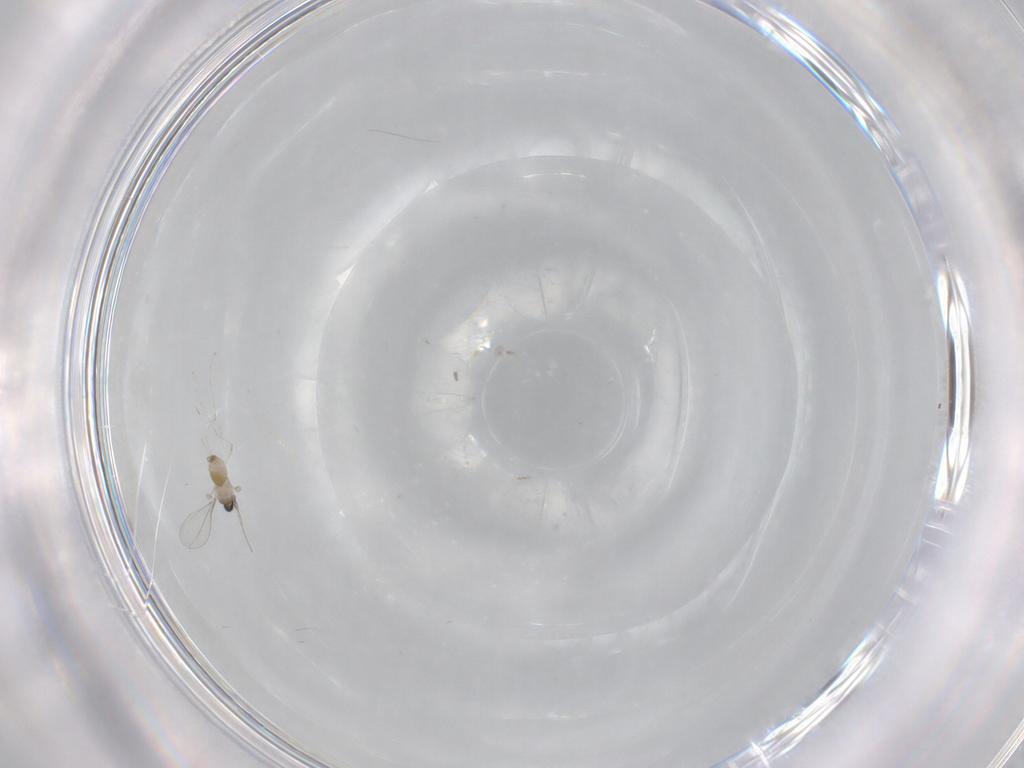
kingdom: Animalia
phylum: Arthropoda
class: Insecta
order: Diptera
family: Cecidomyiidae
